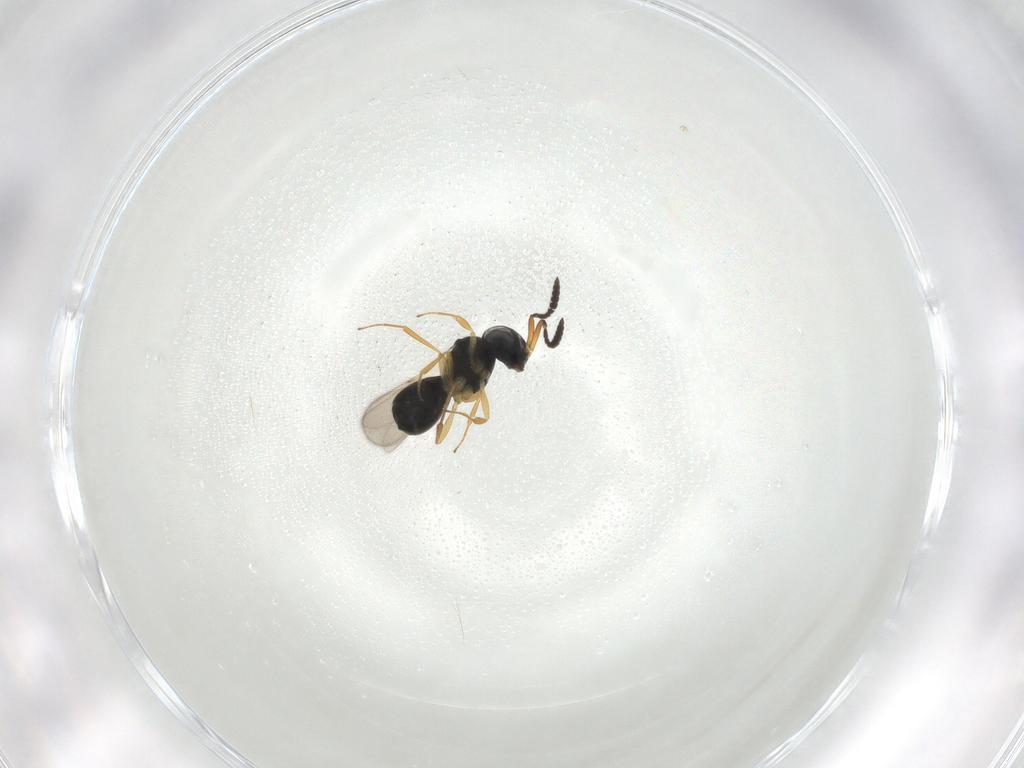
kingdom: Animalia
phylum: Arthropoda
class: Insecta
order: Hymenoptera
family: Scelionidae
